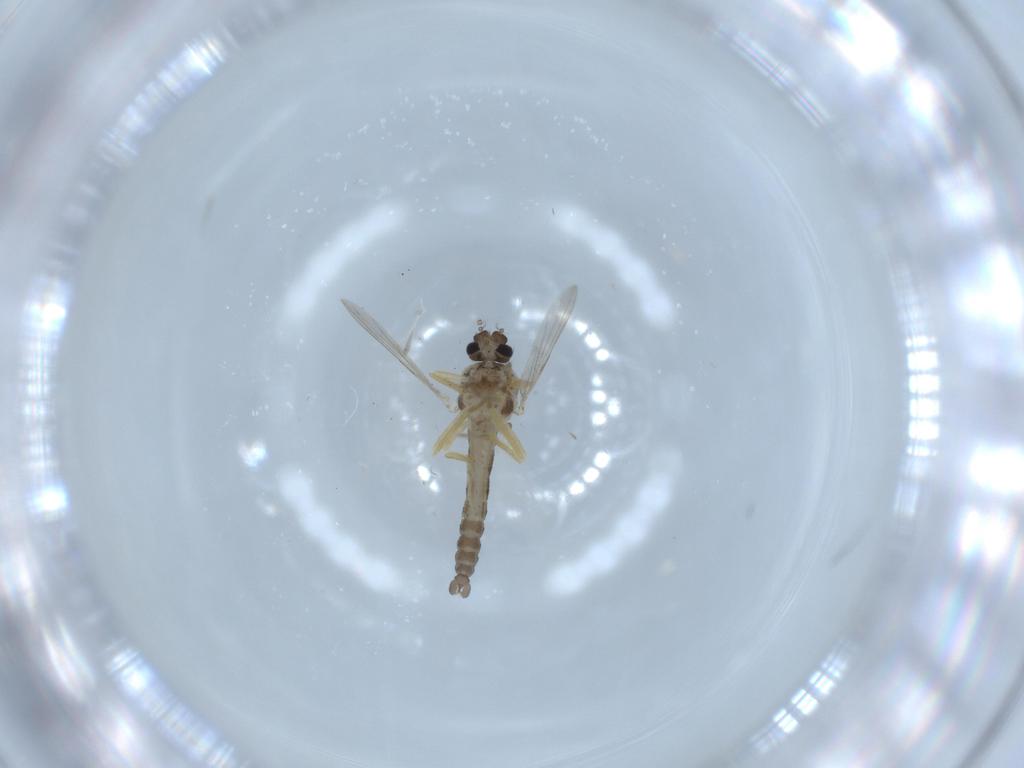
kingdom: Animalia
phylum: Arthropoda
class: Insecta
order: Diptera
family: Ceratopogonidae
